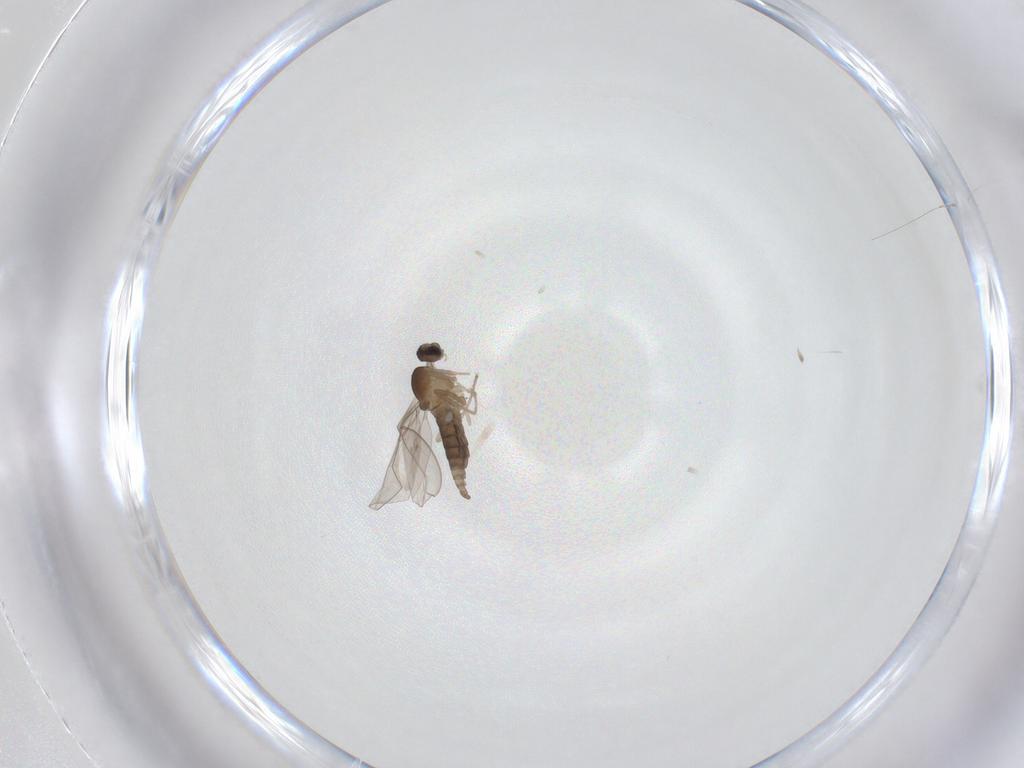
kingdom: Animalia
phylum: Arthropoda
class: Insecta
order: Diptera
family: Cecidomyiidae
